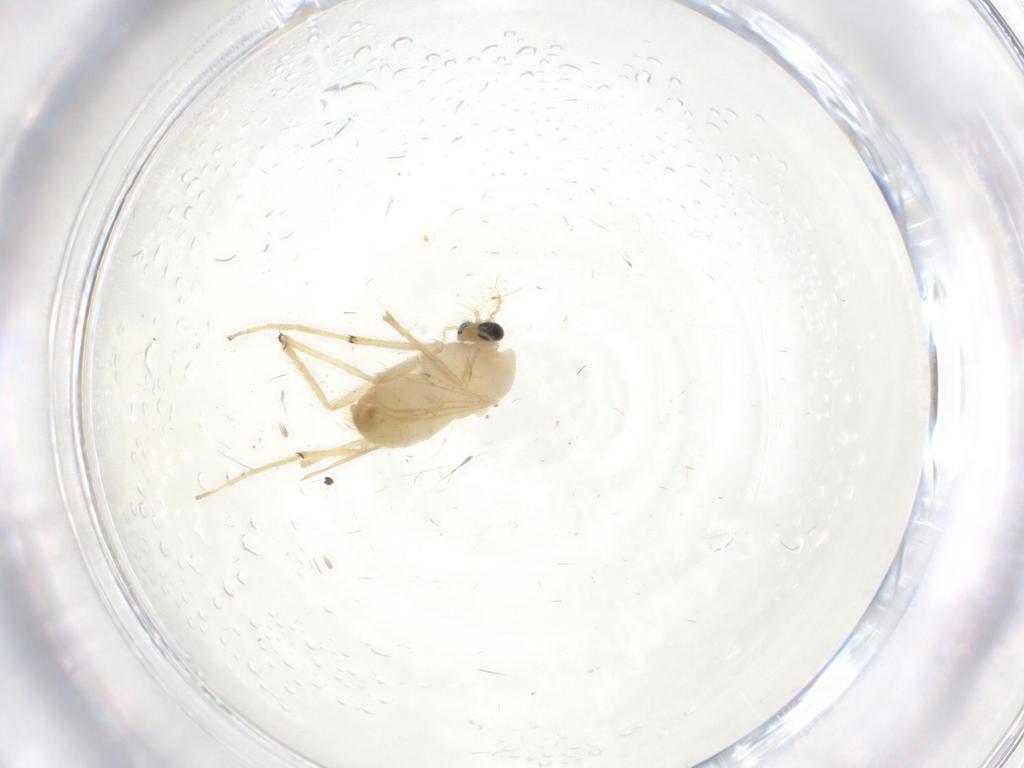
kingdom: Animalia
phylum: Arthropoda
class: Insecta
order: Diptera
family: Chironomidae
